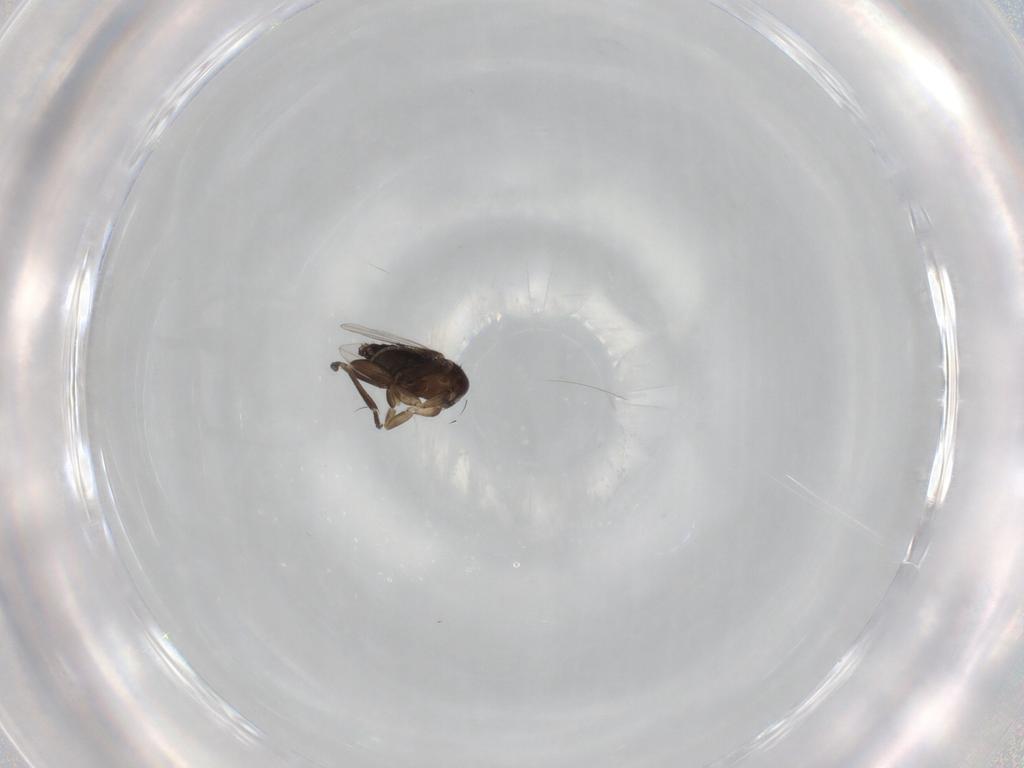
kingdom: Animalia
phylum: Arthropoda
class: Insecta
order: Diptera
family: Phoridae
